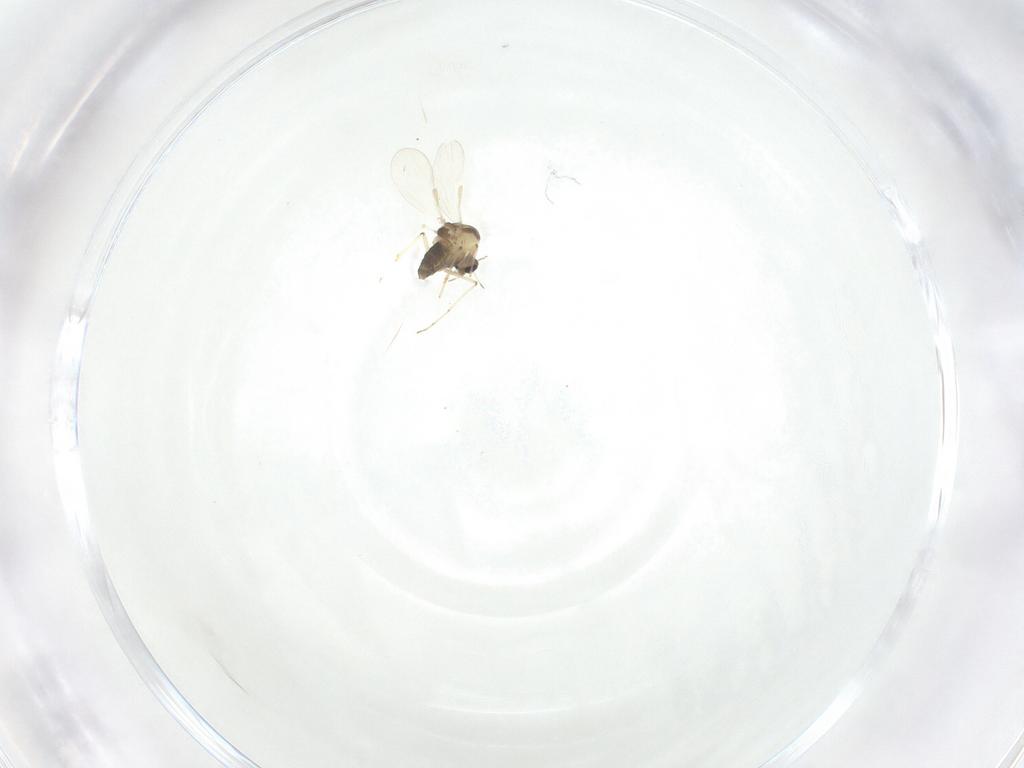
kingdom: Animalia
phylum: Arthropoda
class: Insecta
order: Diptera
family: Chironomidae
